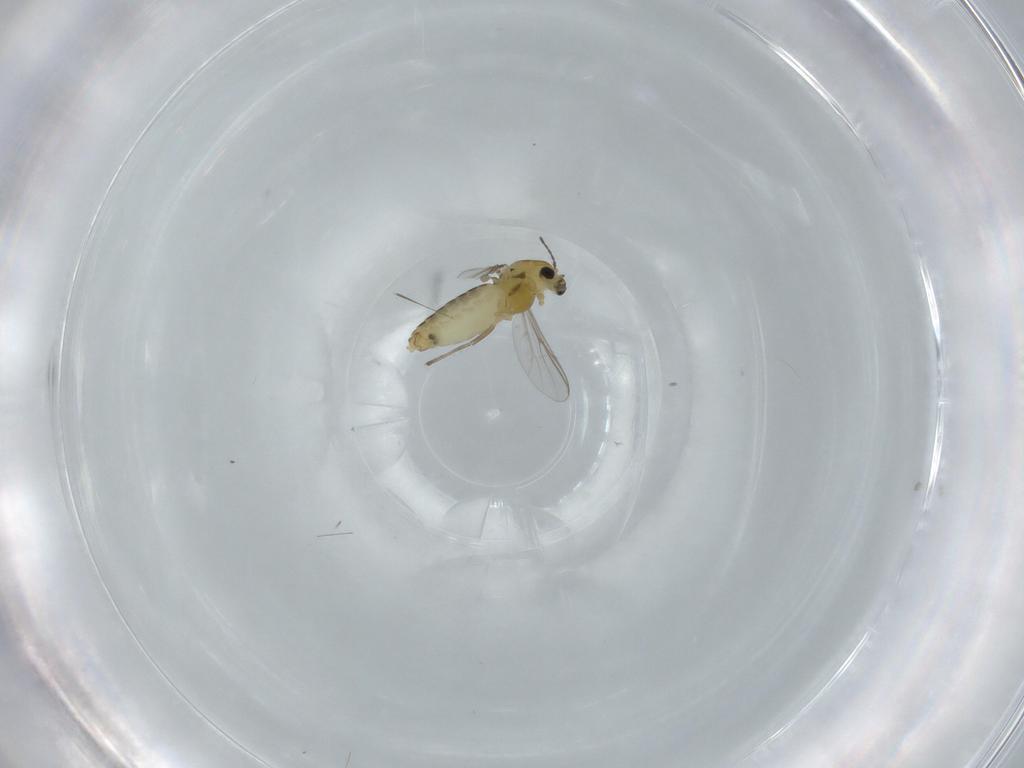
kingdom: Animalia
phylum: Arthropoda
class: Insecta
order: Diptera
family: Chironomidae
